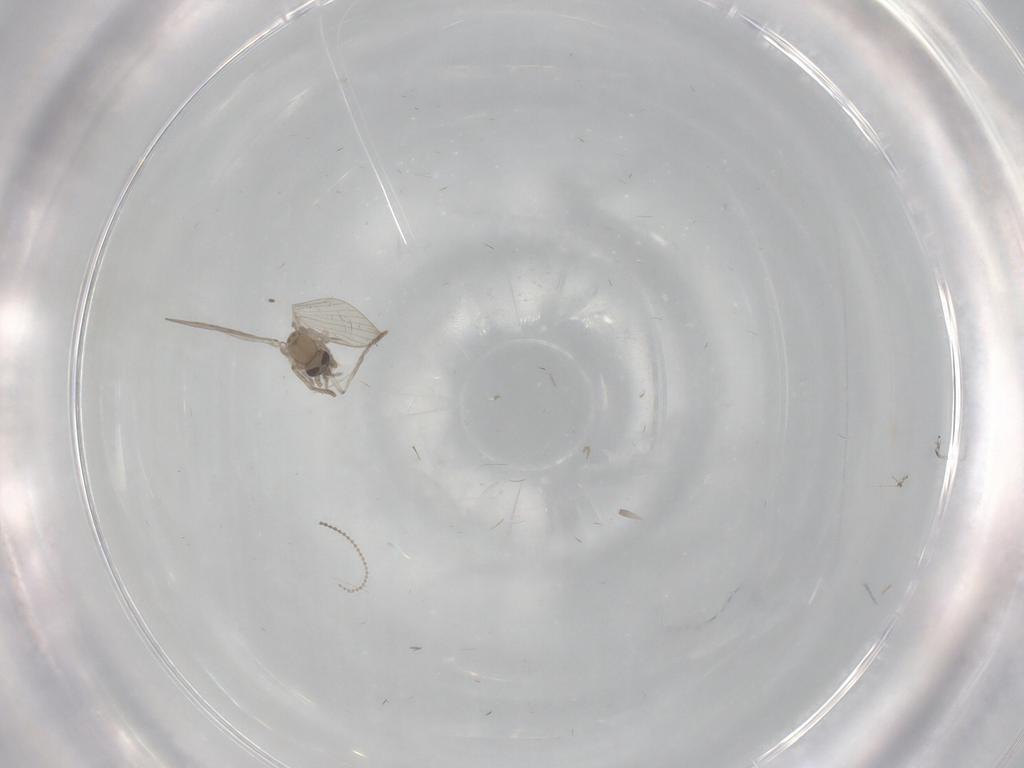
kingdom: Animalia
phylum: Arthropoda
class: Insecta
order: Diptera
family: Psychodidae
